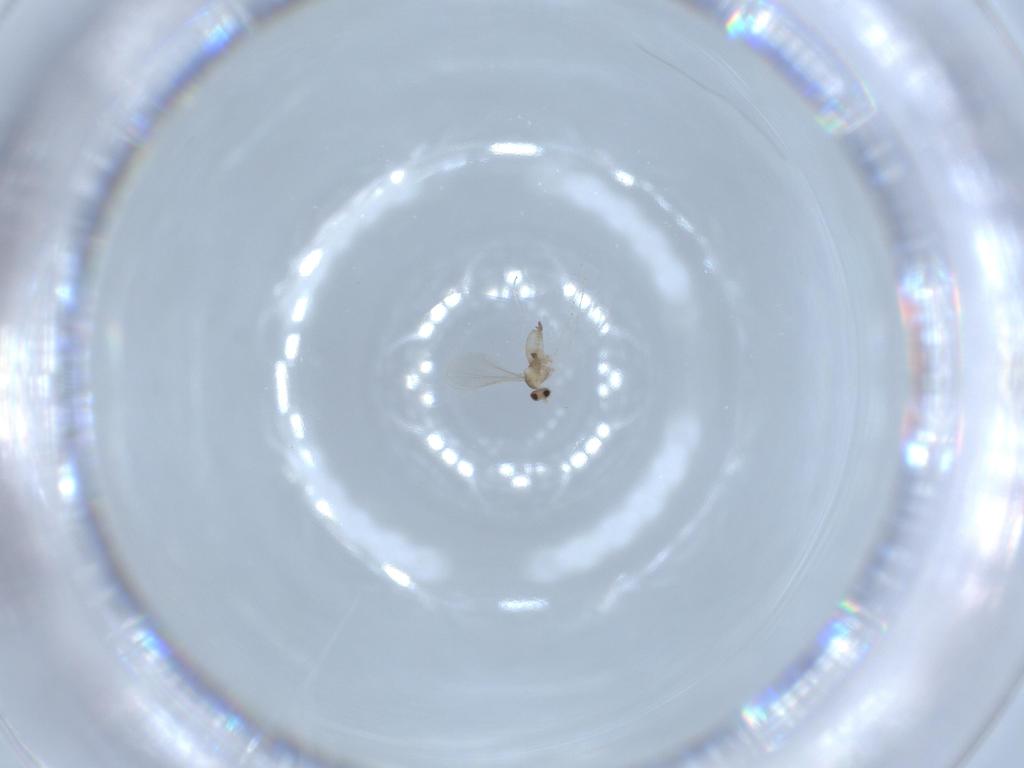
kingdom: Animalia
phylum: Arthropoda
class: Insecta
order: Diptera
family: Cecidomyiidae
